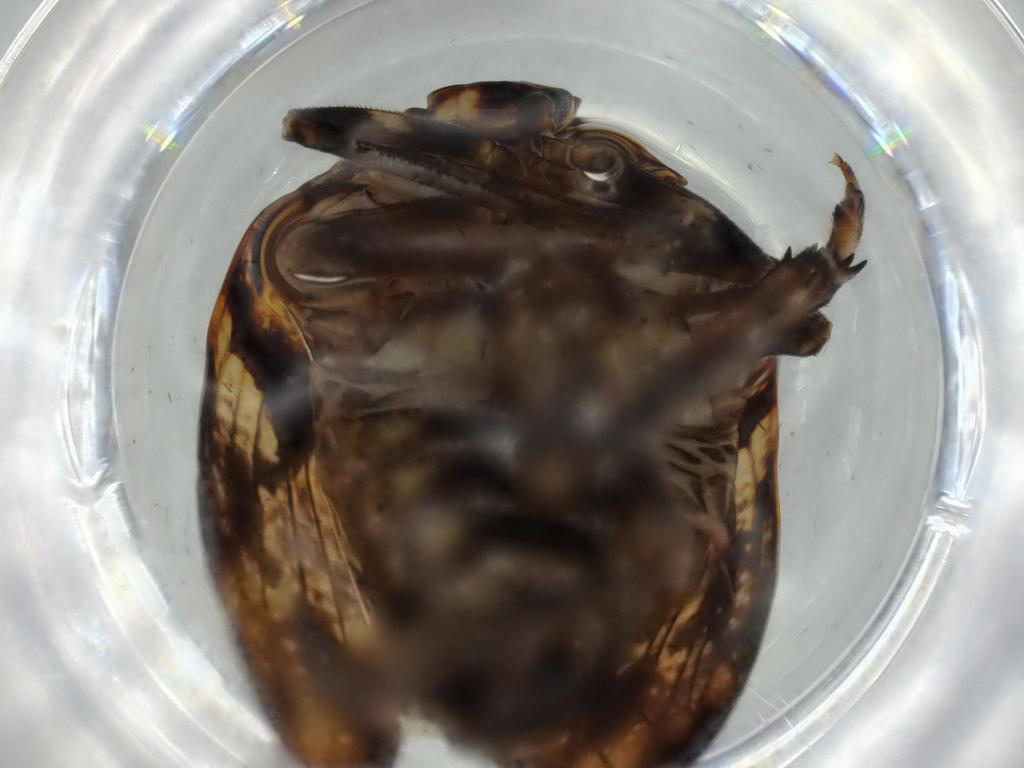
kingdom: Animalia
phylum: Arthropoda
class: Insecta
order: Hemiptera
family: Issidae
